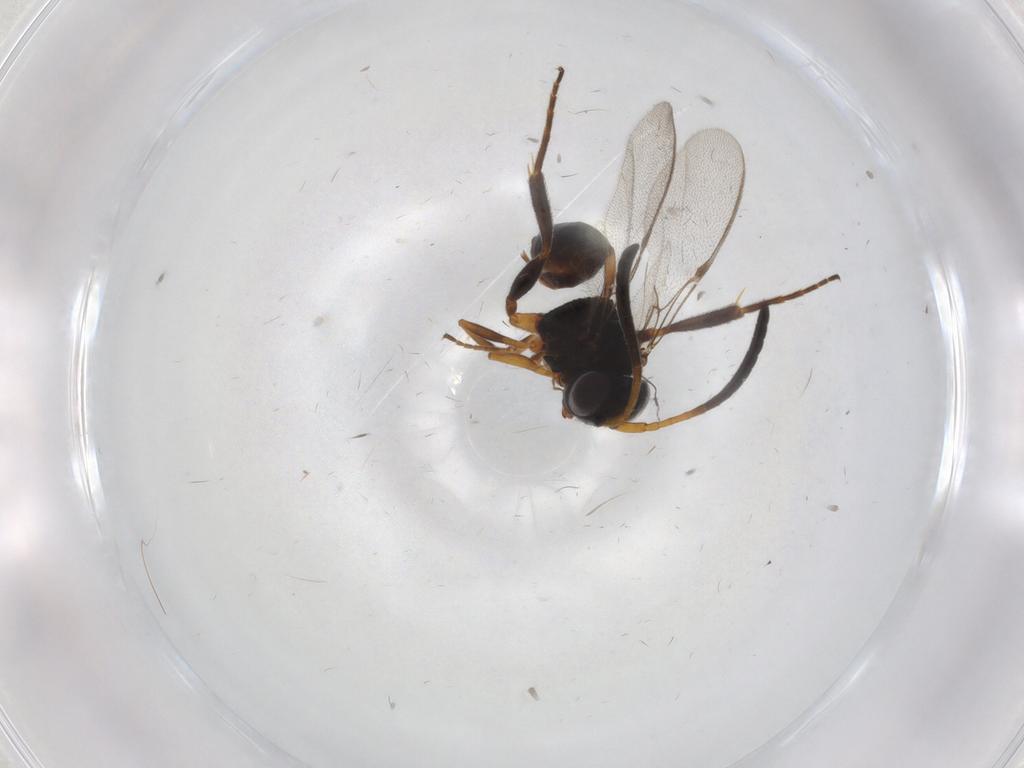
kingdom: Animalia
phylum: Arthropoda
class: Insecta
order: Hymenoptera
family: Evaniidae
